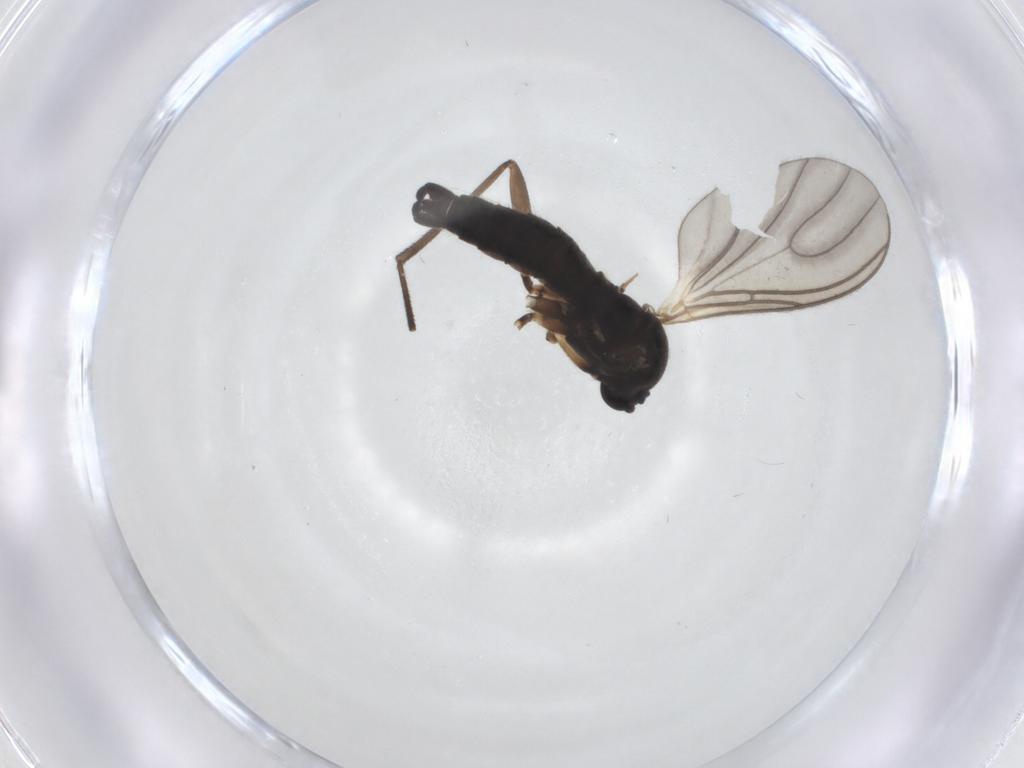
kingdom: Animalia
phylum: Arthropoda
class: Insecta
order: Diptera
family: Sciaridae
